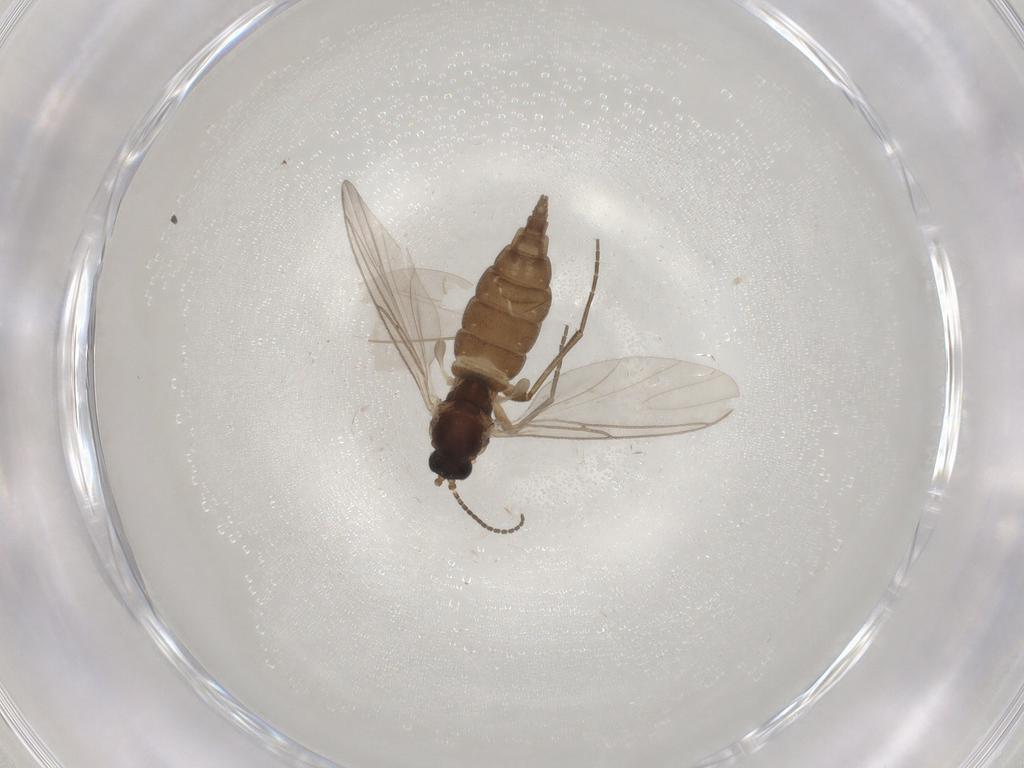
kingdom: Animalia
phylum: Arthropoda
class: Insecta
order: Diptera
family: Sciaridae
